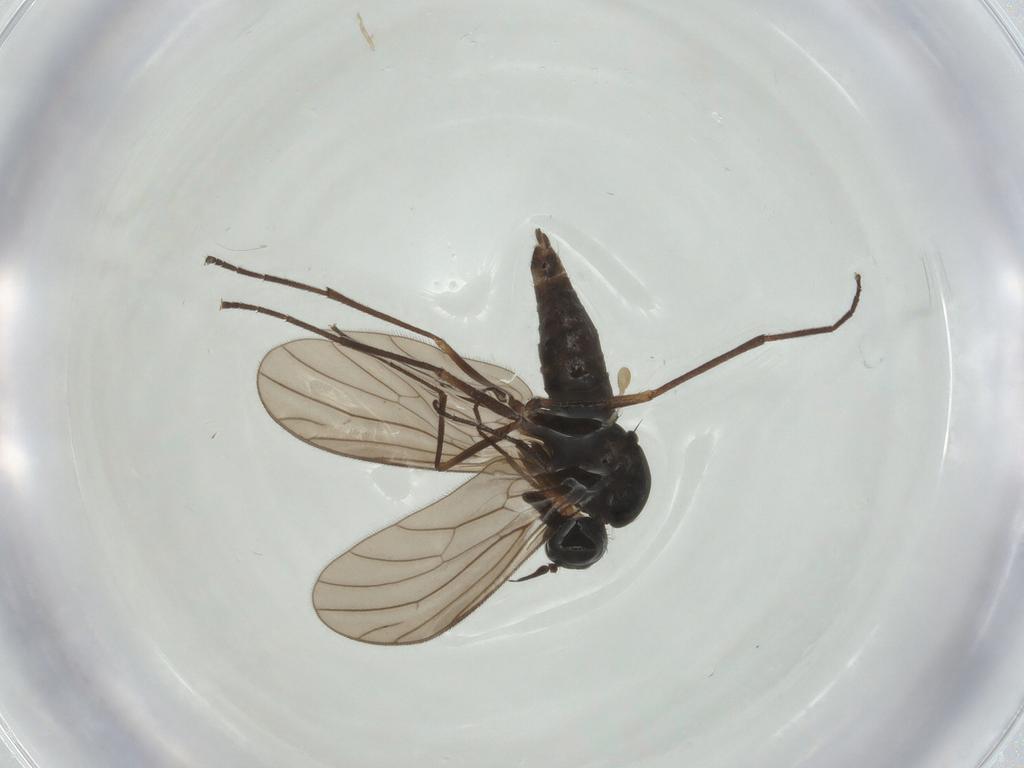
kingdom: Animalia
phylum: Arthropoda
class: Insecta
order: Diptera
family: Empididae
